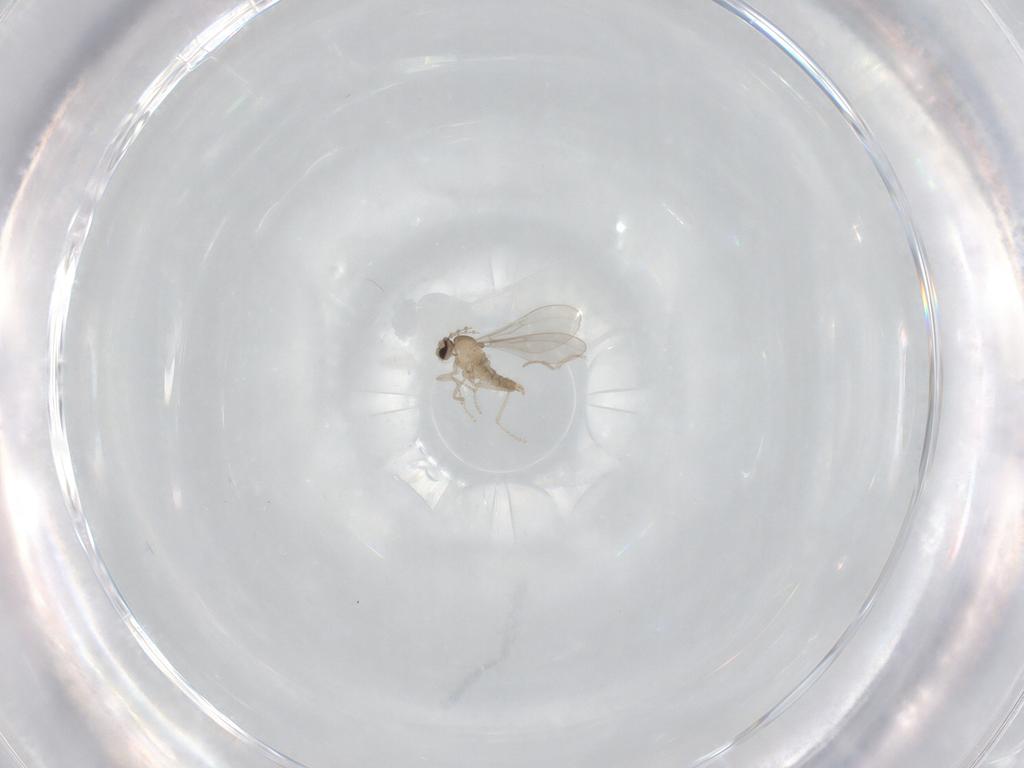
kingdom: Animalia
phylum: Arthropoda
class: Insecta
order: Diptera
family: Cecidomyiidae
